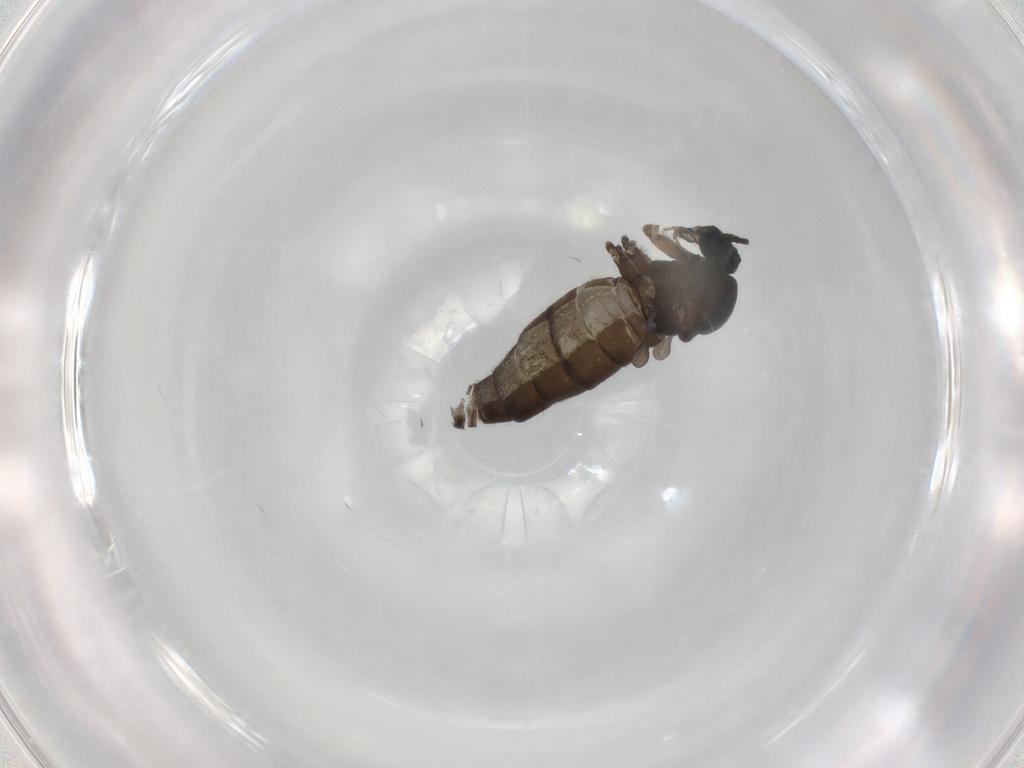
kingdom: Animalia
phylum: Arthropoda
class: Insecta
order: Diptera
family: Sciaridae
